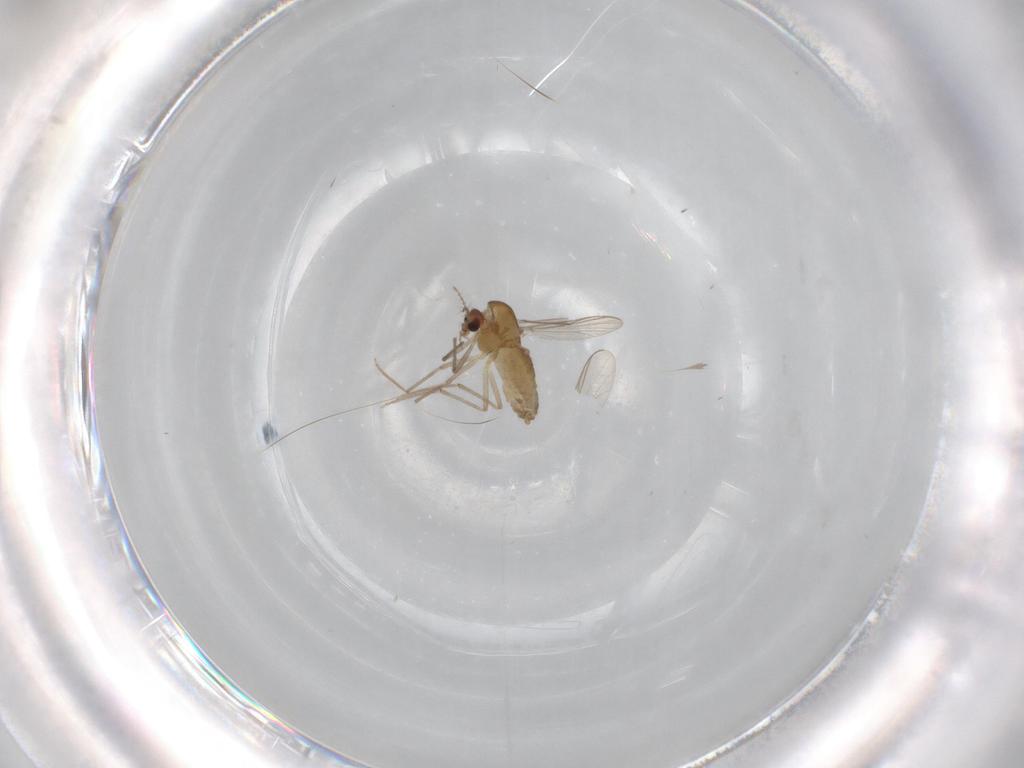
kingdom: Animalia
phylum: Arthropoda
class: Insecta
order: Diptera
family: Chironomidae
